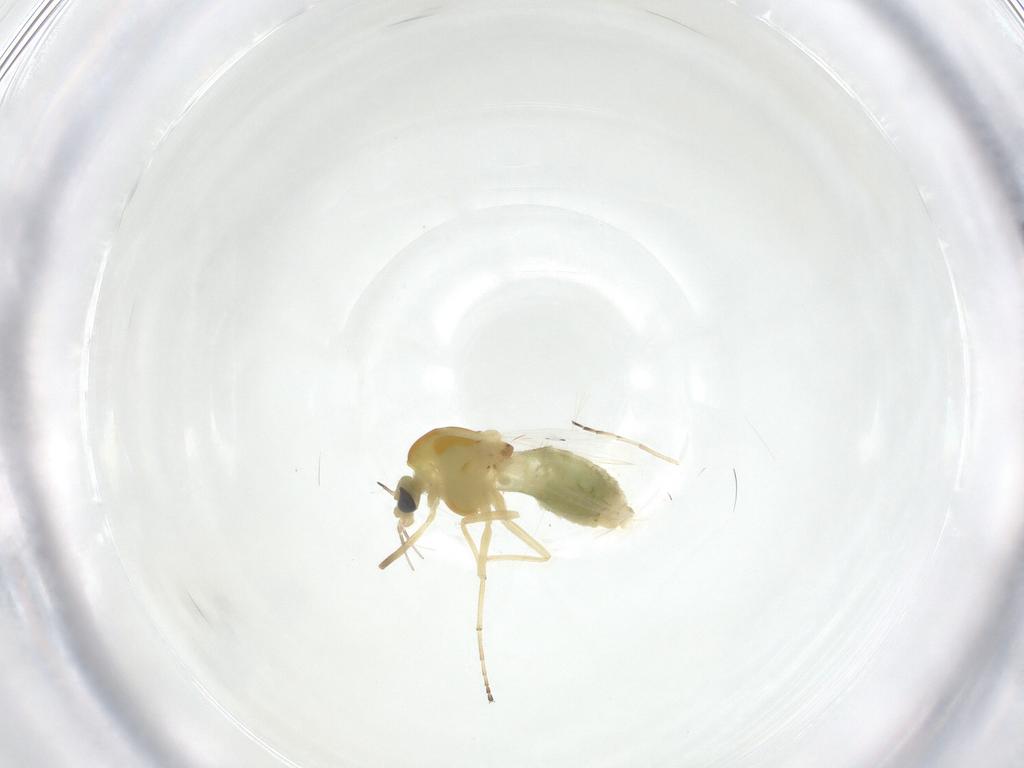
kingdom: Animalia
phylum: Arthropoda
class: Insecta
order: Diptera
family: Chironomidae
